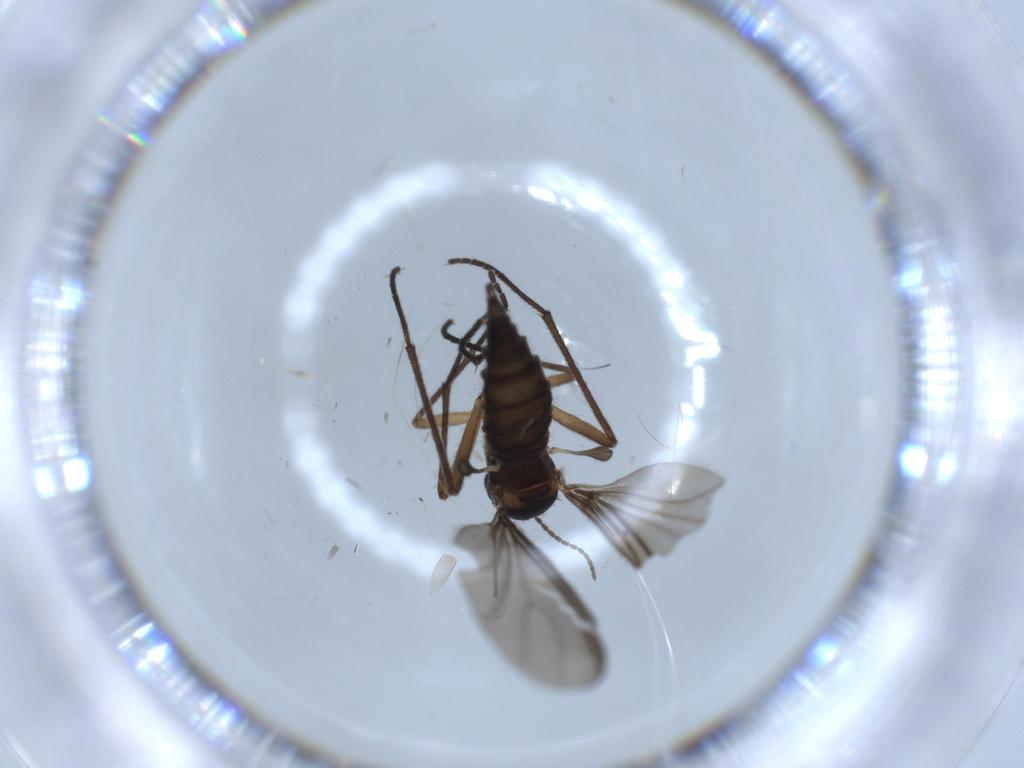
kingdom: Animalia
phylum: Arthropoda
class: Insecta
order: Diptera
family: Sciaridae
